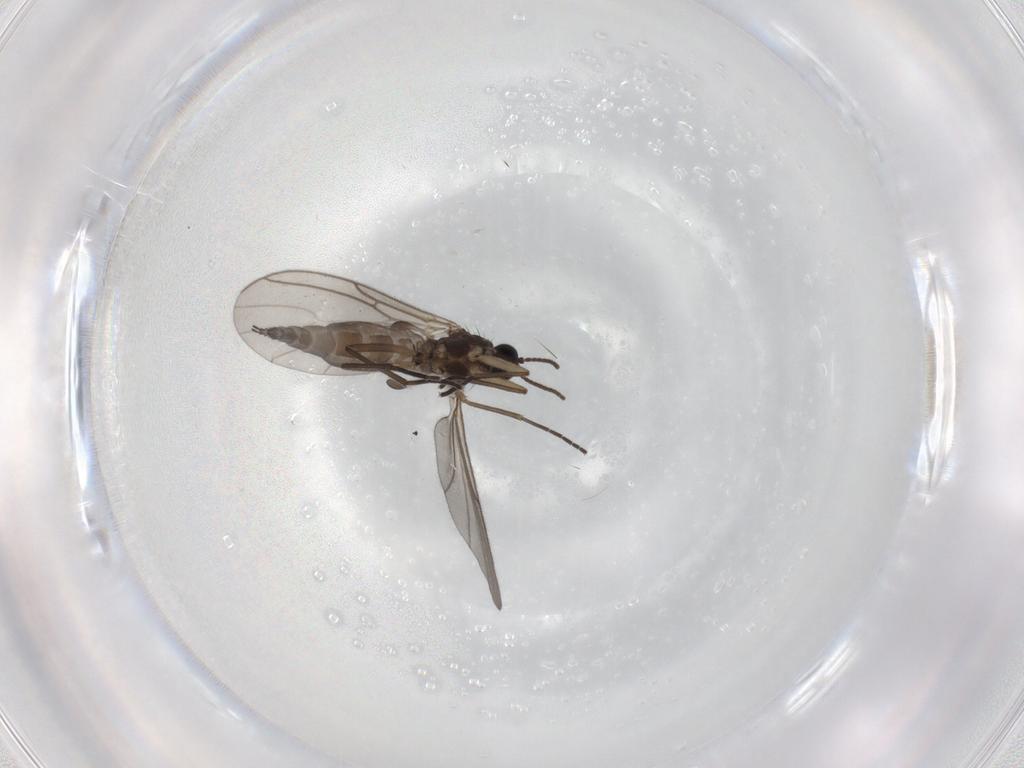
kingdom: Animalia
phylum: Arthropoda
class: Insecta
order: Diptera
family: Sciaridae
